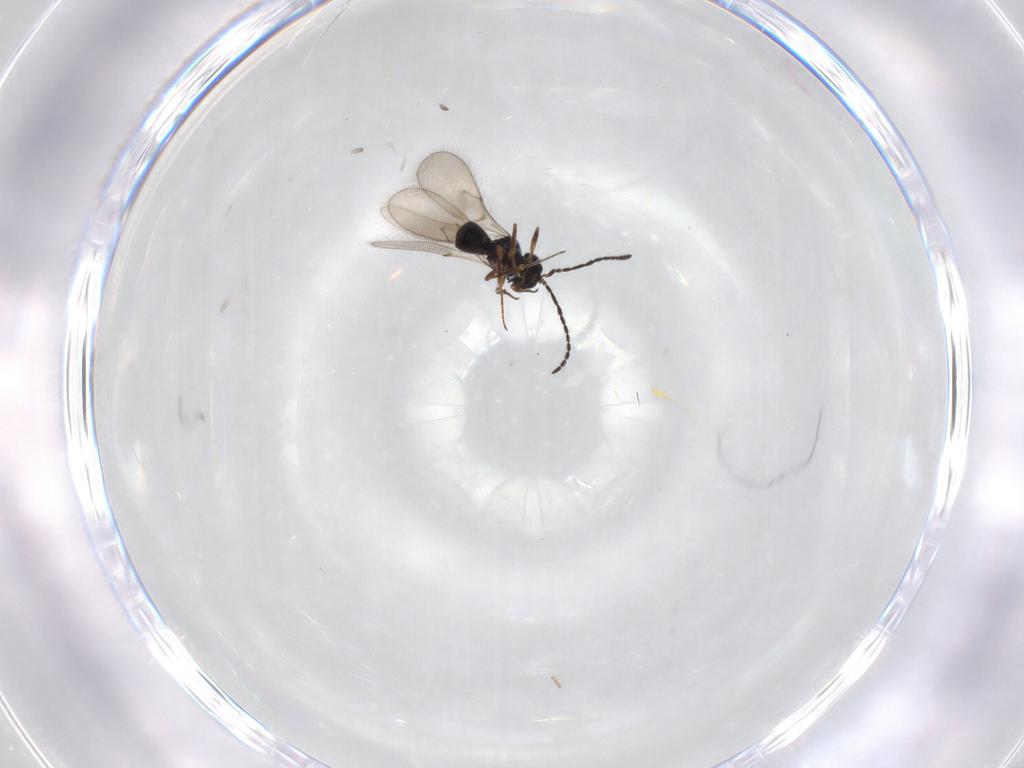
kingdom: Animalia
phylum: Arthropoda
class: Insecta
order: Hymenoptera
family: Scelionidae
